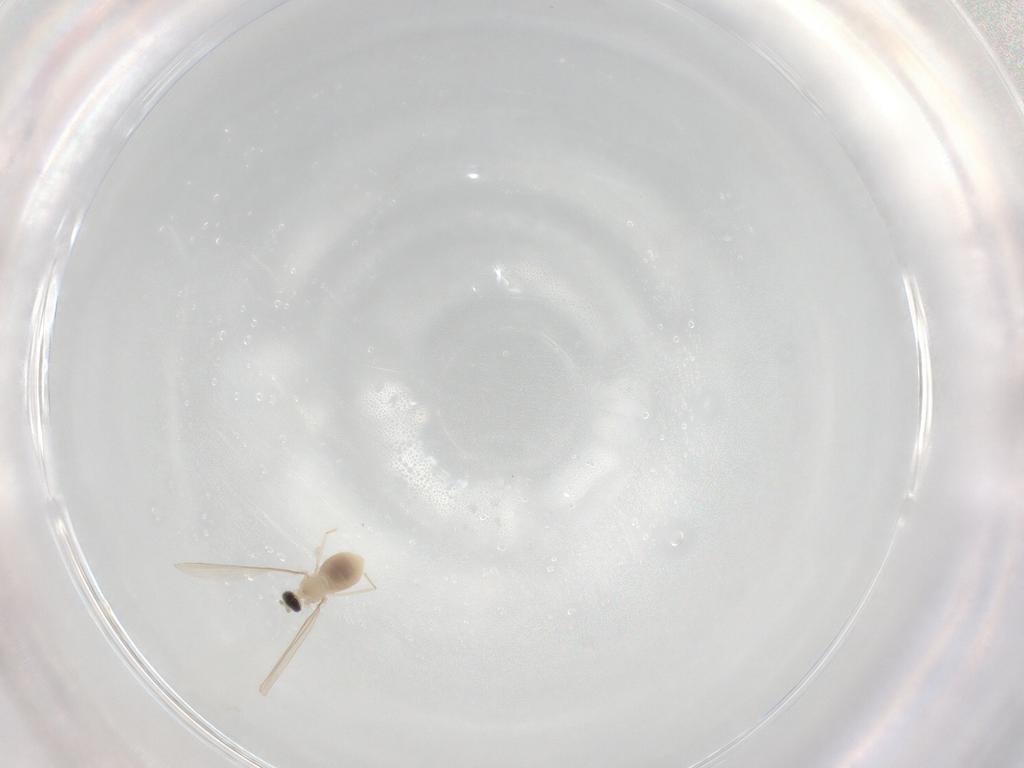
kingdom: Animalia
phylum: Arthropoda
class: Insecta
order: Diptera
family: Cecidomyiidae
